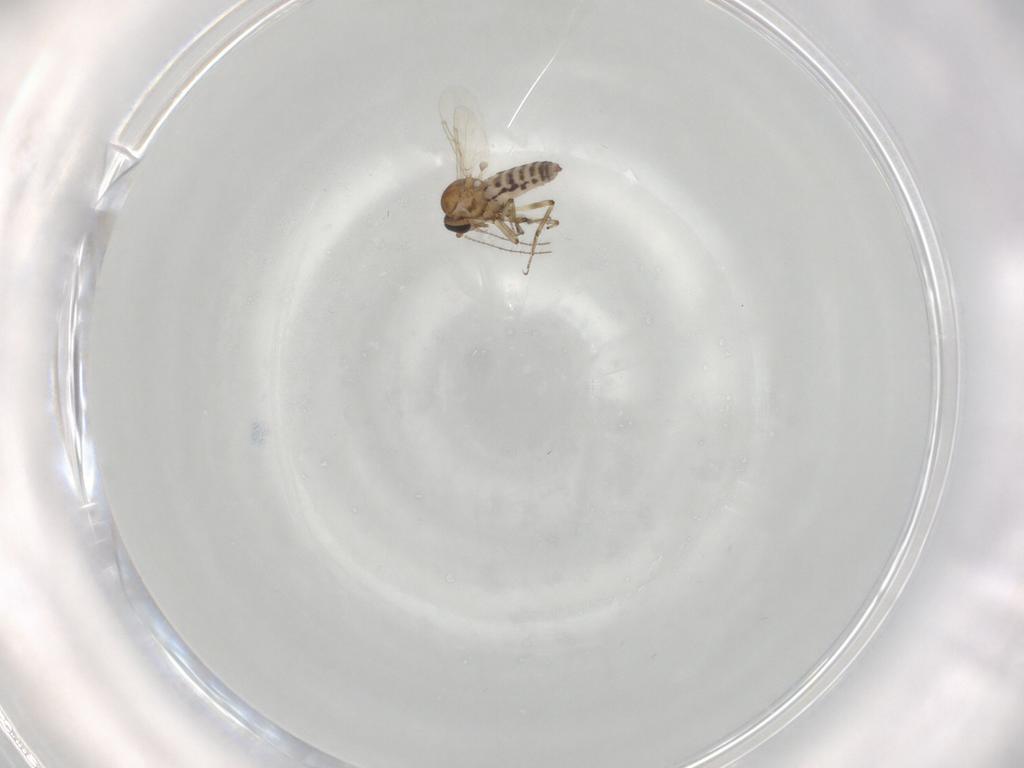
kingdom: Animalia
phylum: Arthropoda
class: Insecta
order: Diptera
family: Ceratopogonidae
